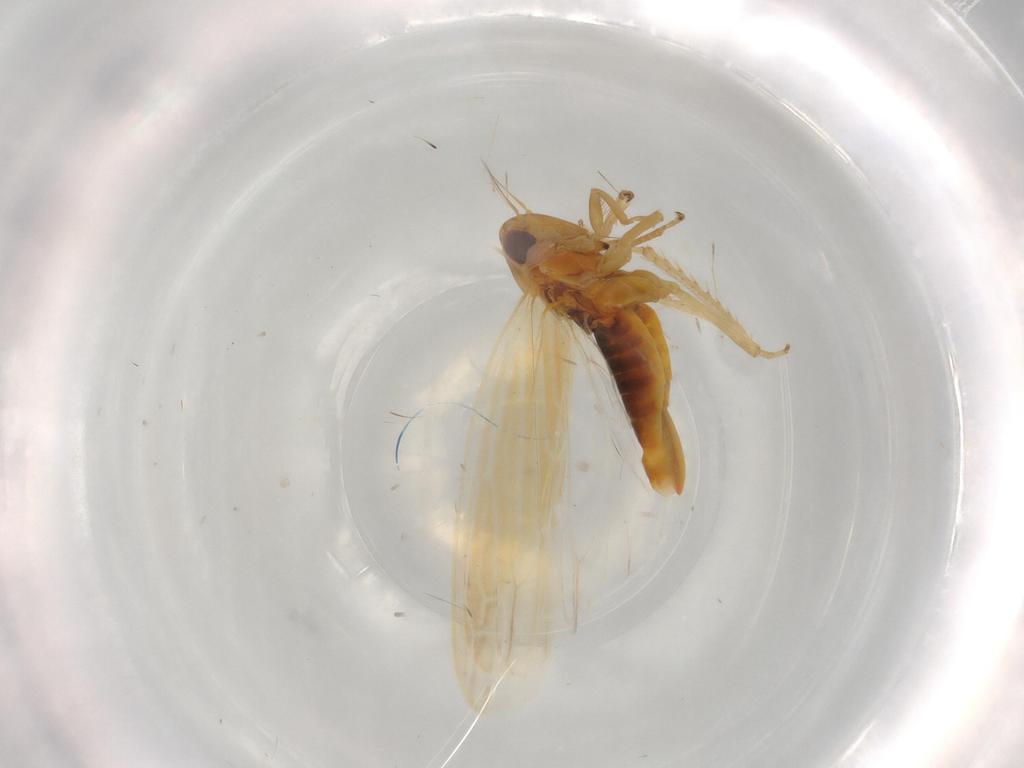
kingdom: Animalia
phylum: Arthropoda
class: Insecta
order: Hemiptera
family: Cicadellidae
